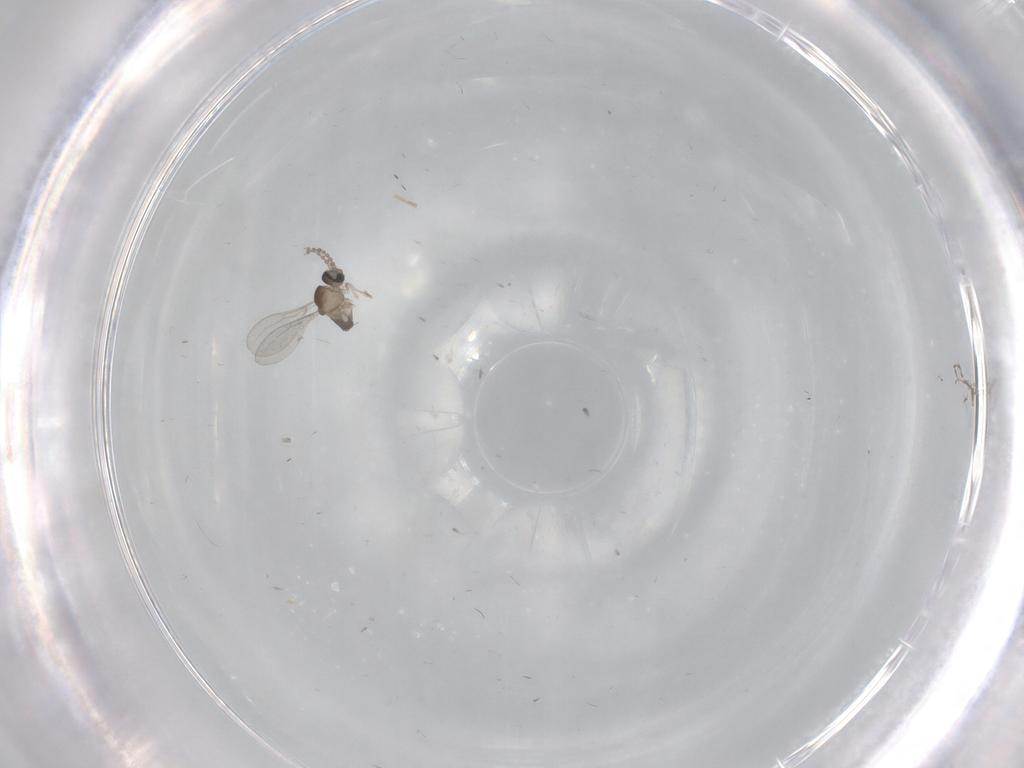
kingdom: Animalia
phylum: Arthropoda
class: Insecta
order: Diptera
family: Cecidomyiidae
